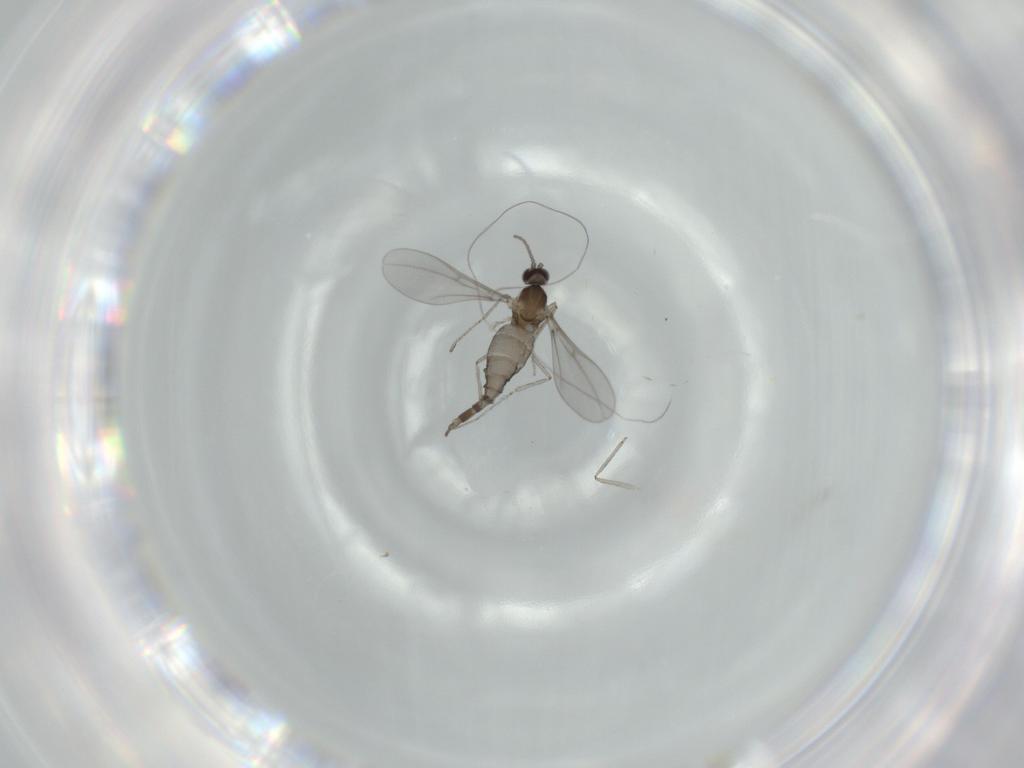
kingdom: Animalia
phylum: Arthropoda
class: Insecta
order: Diptera
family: Cecidomyiidae
